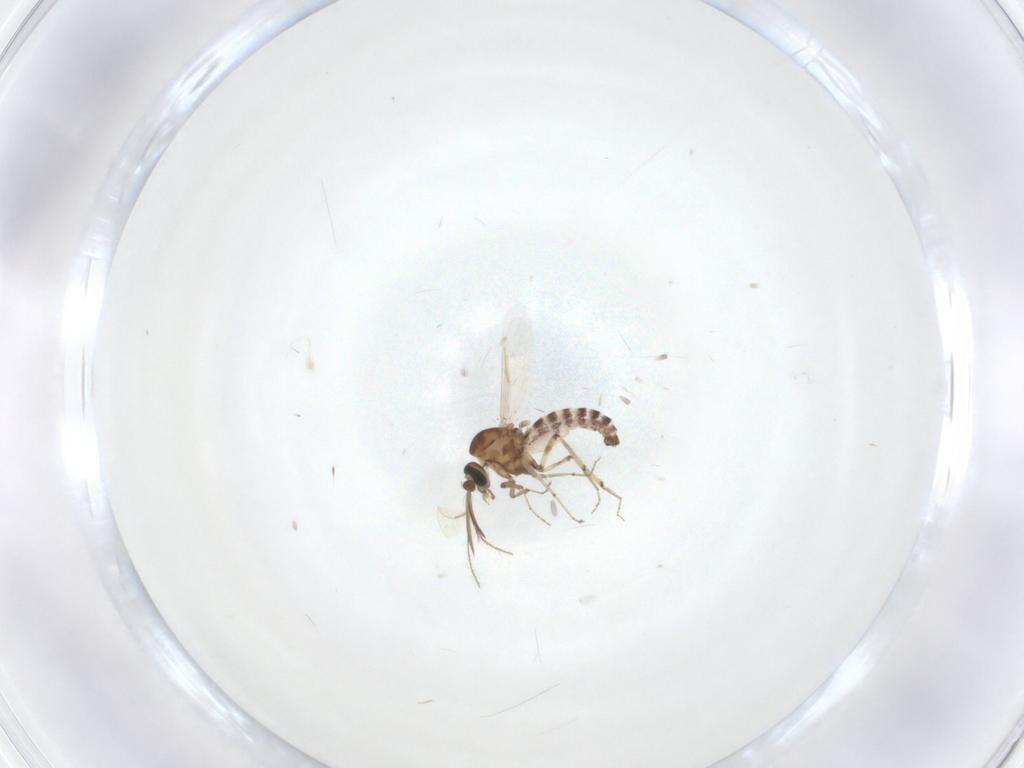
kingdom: Animalia
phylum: Arthropoda
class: Insecta
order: Diptera
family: Ceratopogonidae
